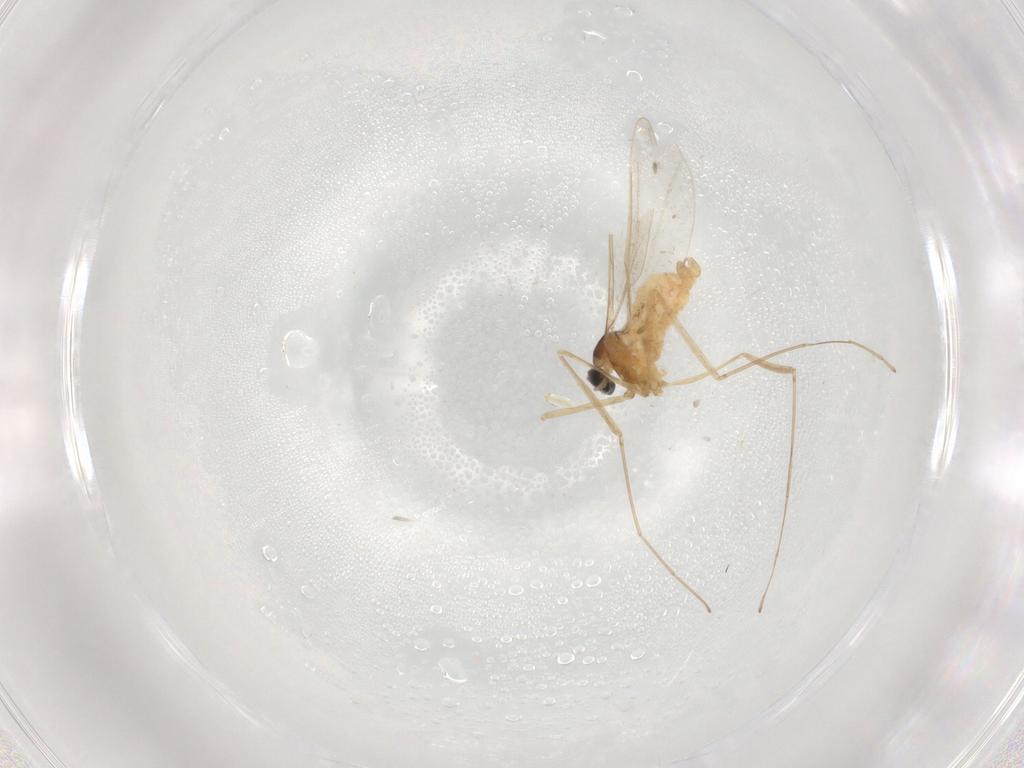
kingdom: Animalia
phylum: Arthropoda
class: Insecta
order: Diptera
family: Cecidomyiidae
